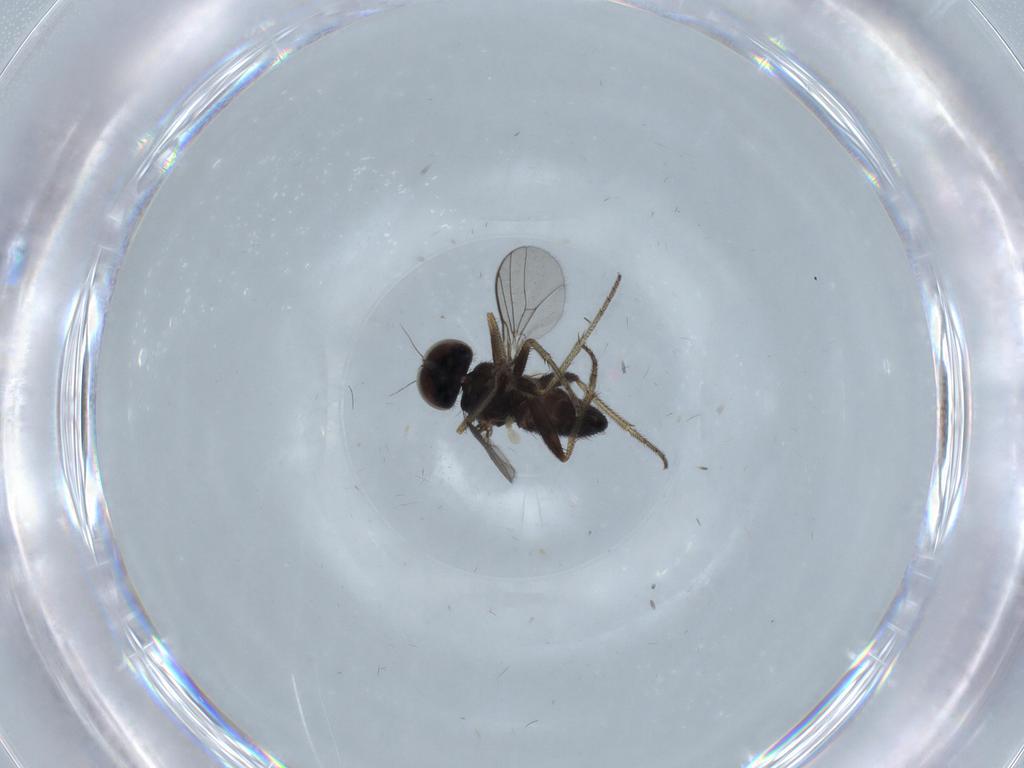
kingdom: Animalia
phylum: Arthropoda
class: Insecta
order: Diptera
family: Dolichopodidae
